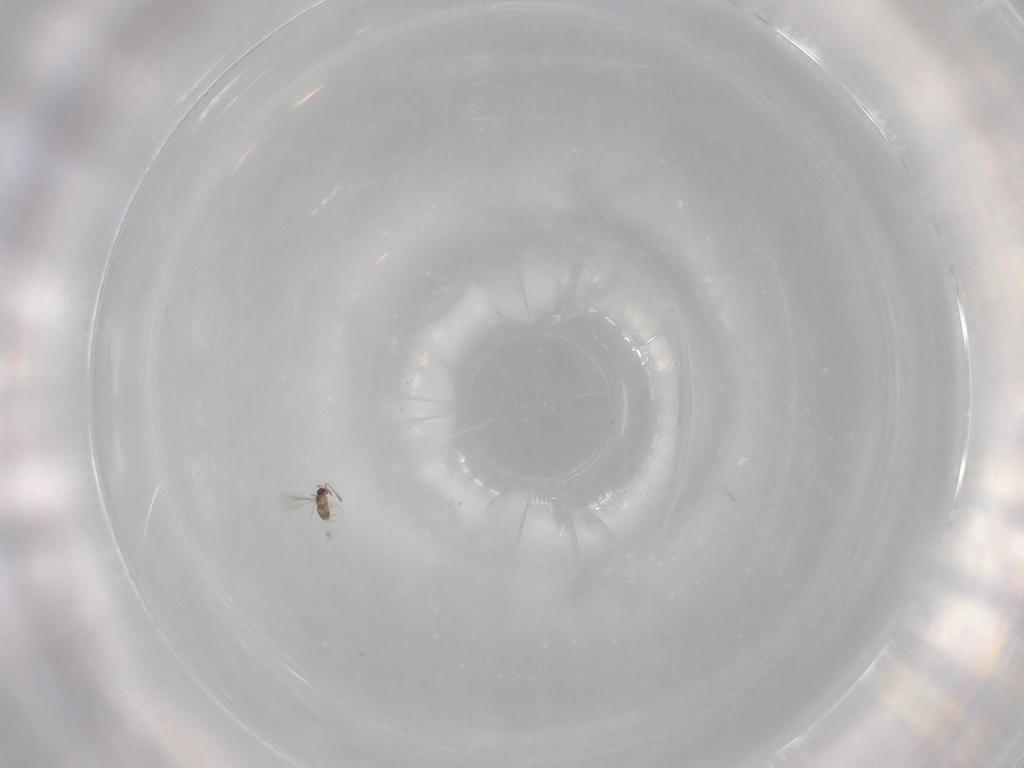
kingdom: Animalia
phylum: Arthropoda
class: Insecta
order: Hymenoptera
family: Mymaridae
